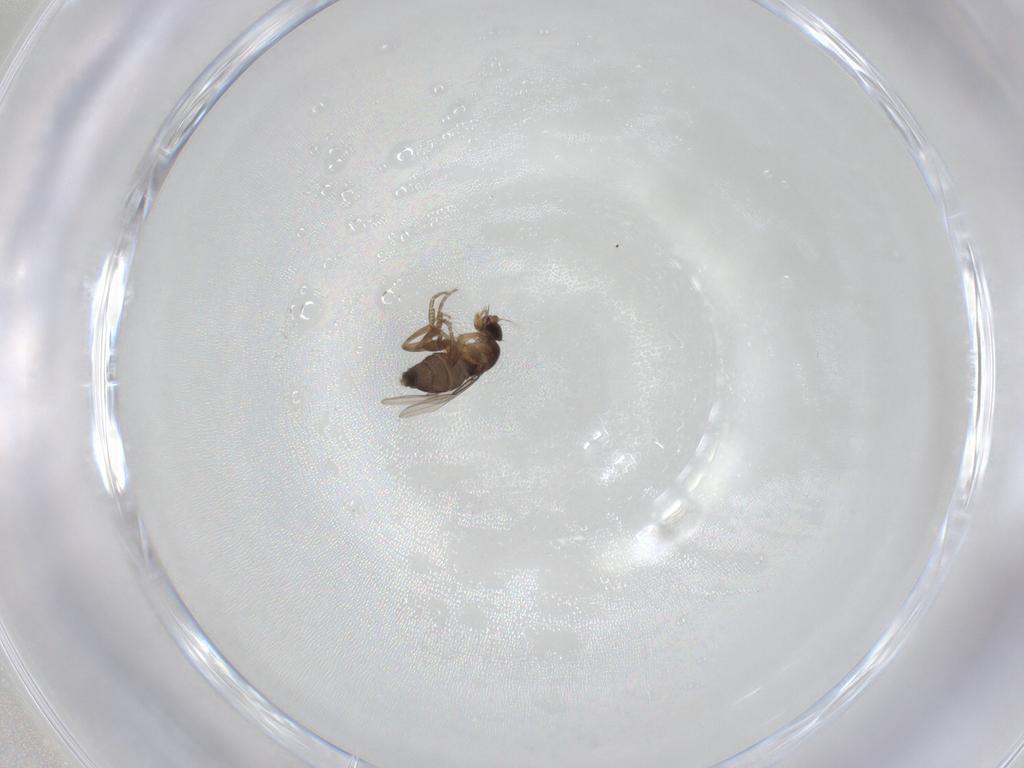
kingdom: Animalia
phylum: Arthropoda
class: Insecta
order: Diptera
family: Phoridae
